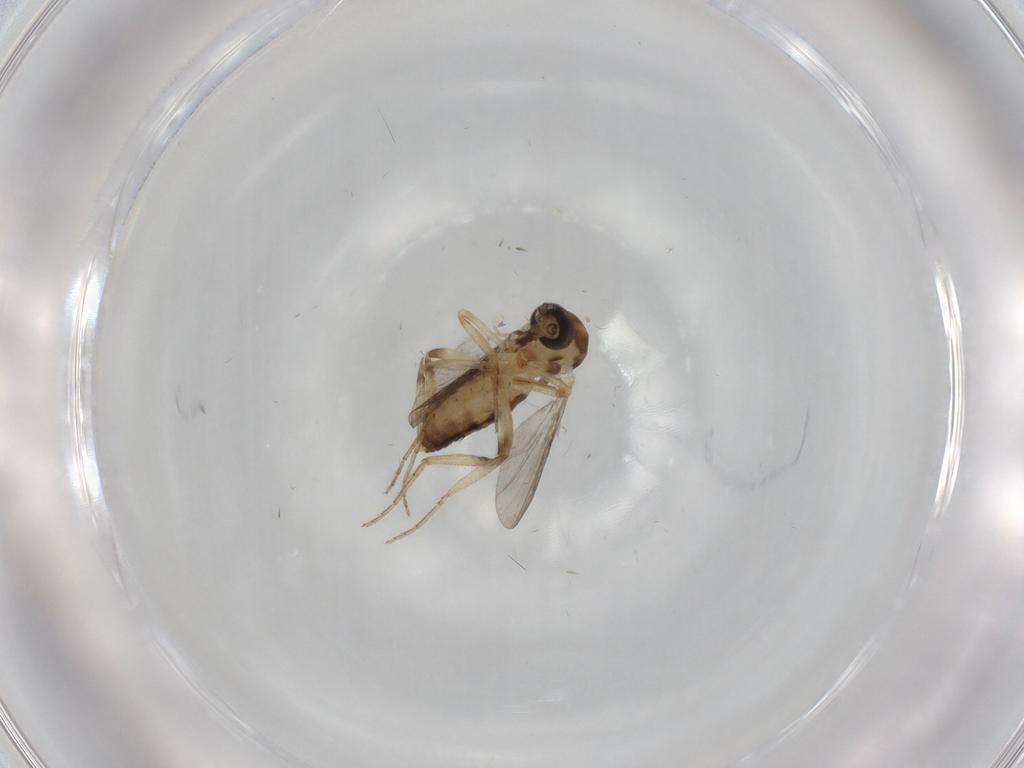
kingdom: Animalia
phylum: Arthropoda
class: Insecta
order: Diptera
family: Ceratopogonidae
